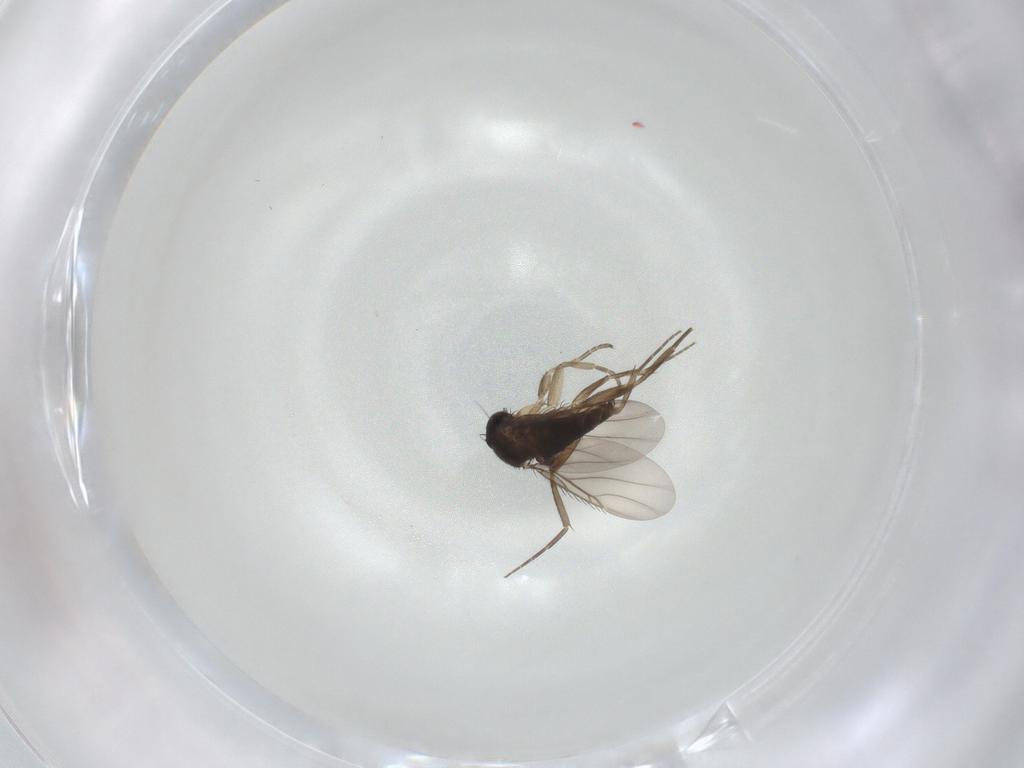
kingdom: Animalia
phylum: Arthropoda
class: Insecta
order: Diptera
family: Phoridae
